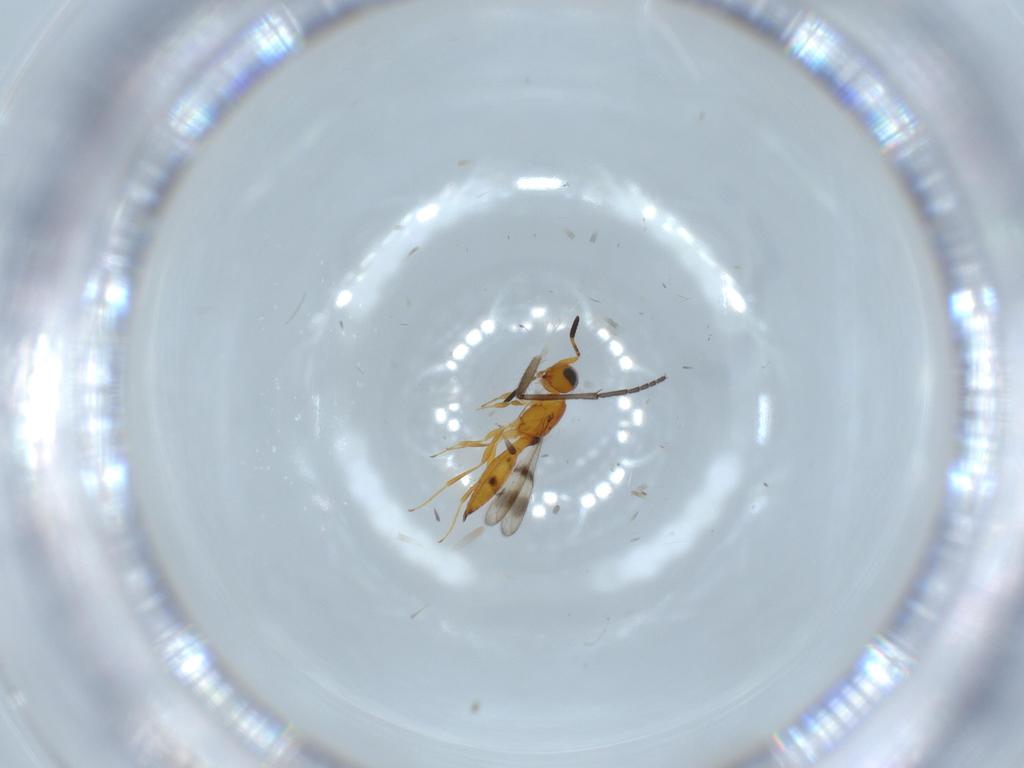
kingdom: Animalia
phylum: Arthropoda
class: Insecta
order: Hymenoptera
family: Scelionidae
